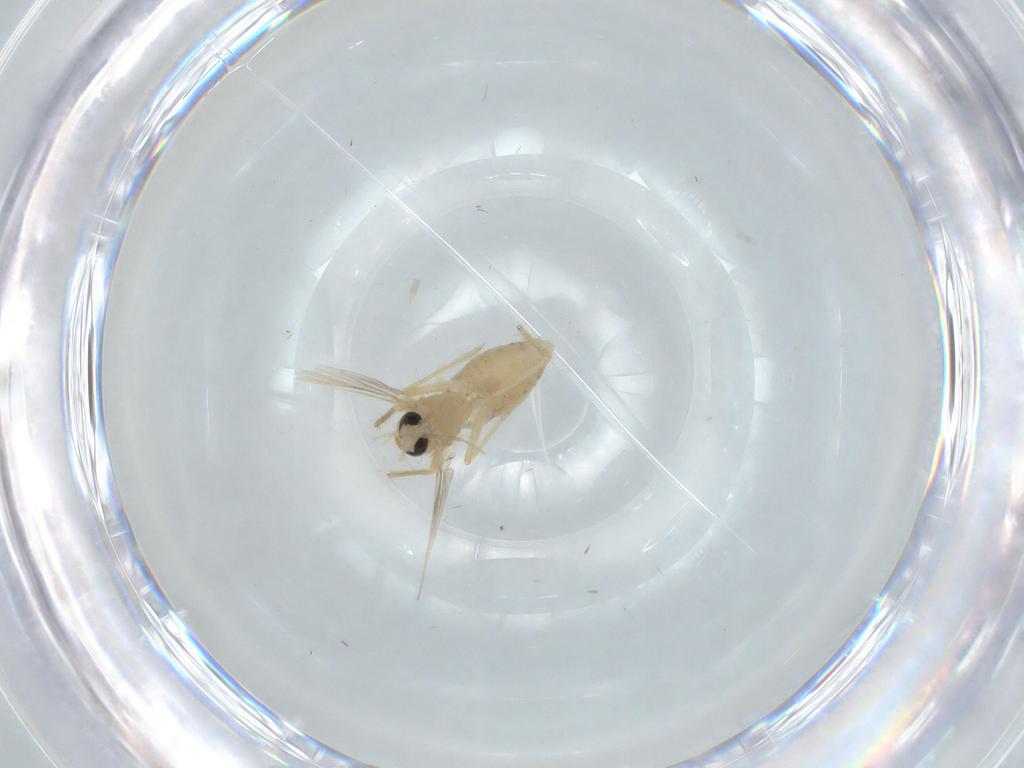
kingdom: Animalia
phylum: Arthropoda
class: Insecta
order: Diptera
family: Chironomidae
